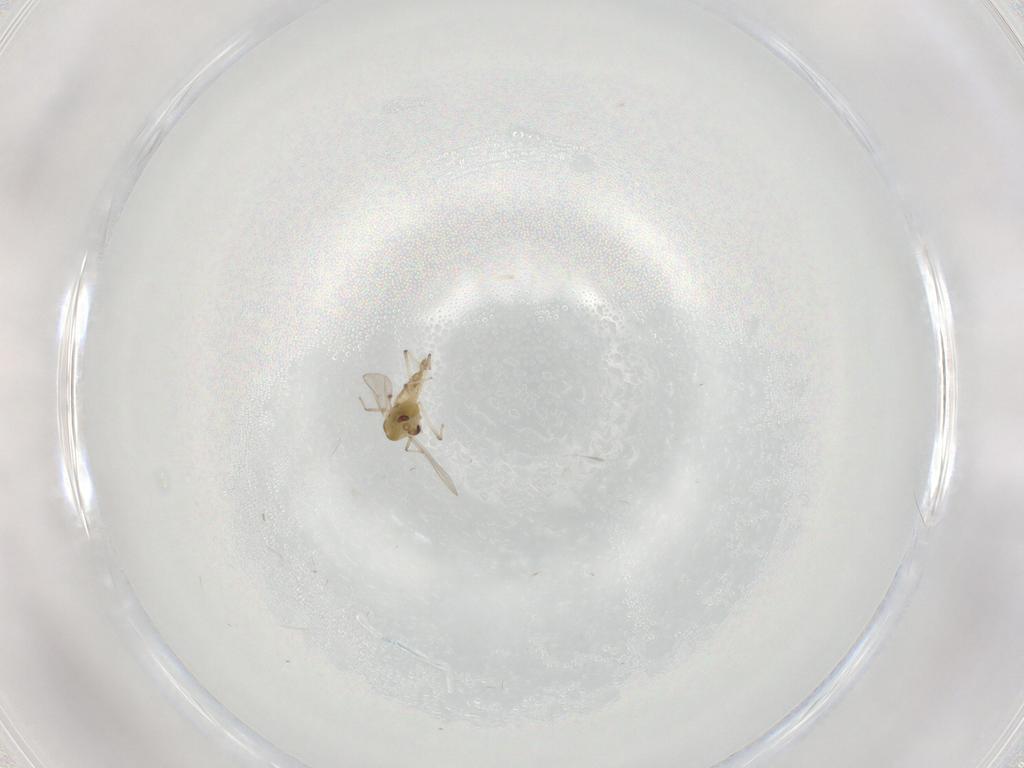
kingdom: Animalia
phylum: Arthropoda
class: Insecta
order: Diptera
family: Chironomidae
